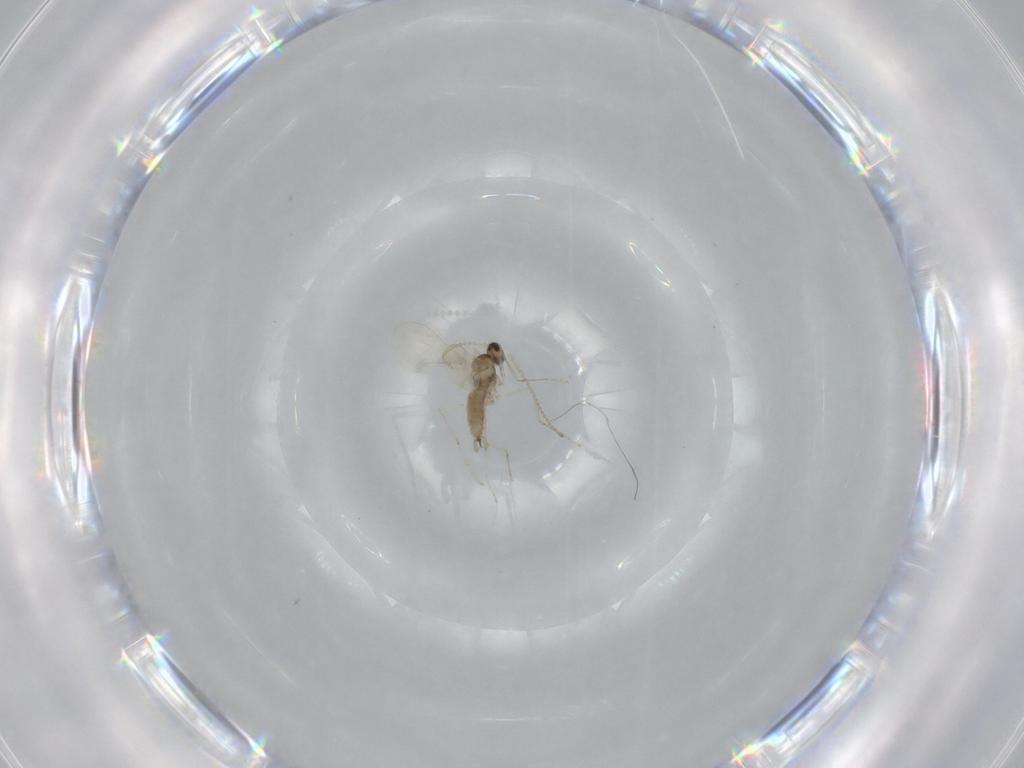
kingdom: Animalia
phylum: Arthropoda
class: Insecta
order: Diptera
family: Cecidomyiidae
